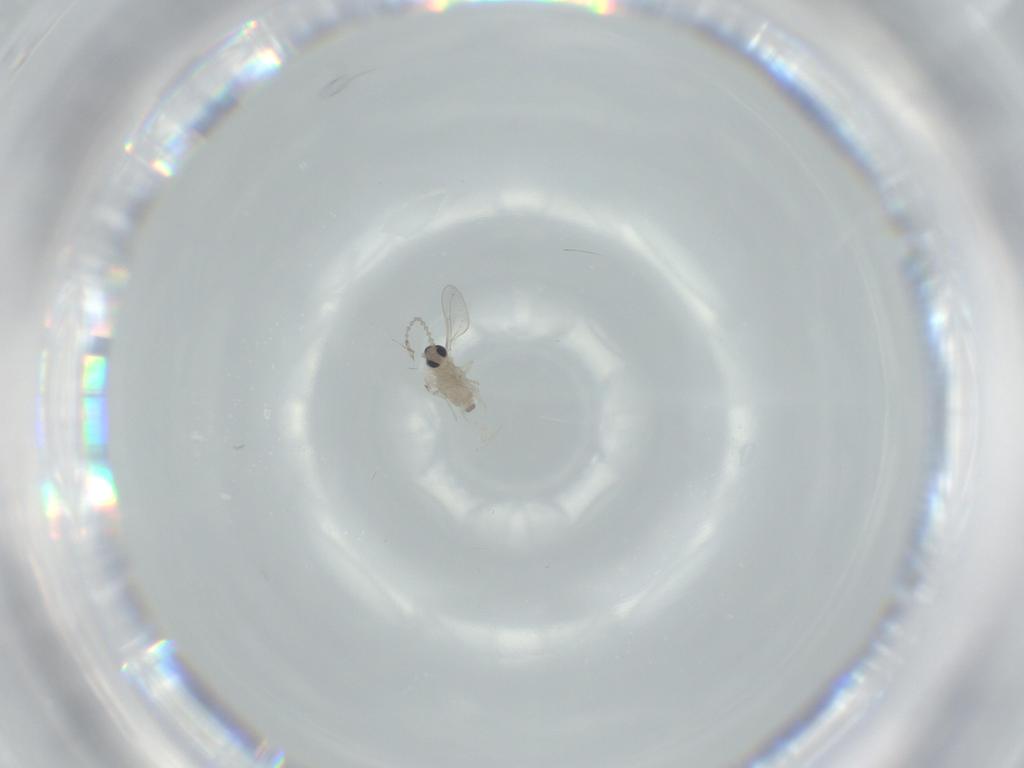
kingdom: Animalia
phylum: Arthropoda
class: Insecta
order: Diptera
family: Cecidomyiidae
